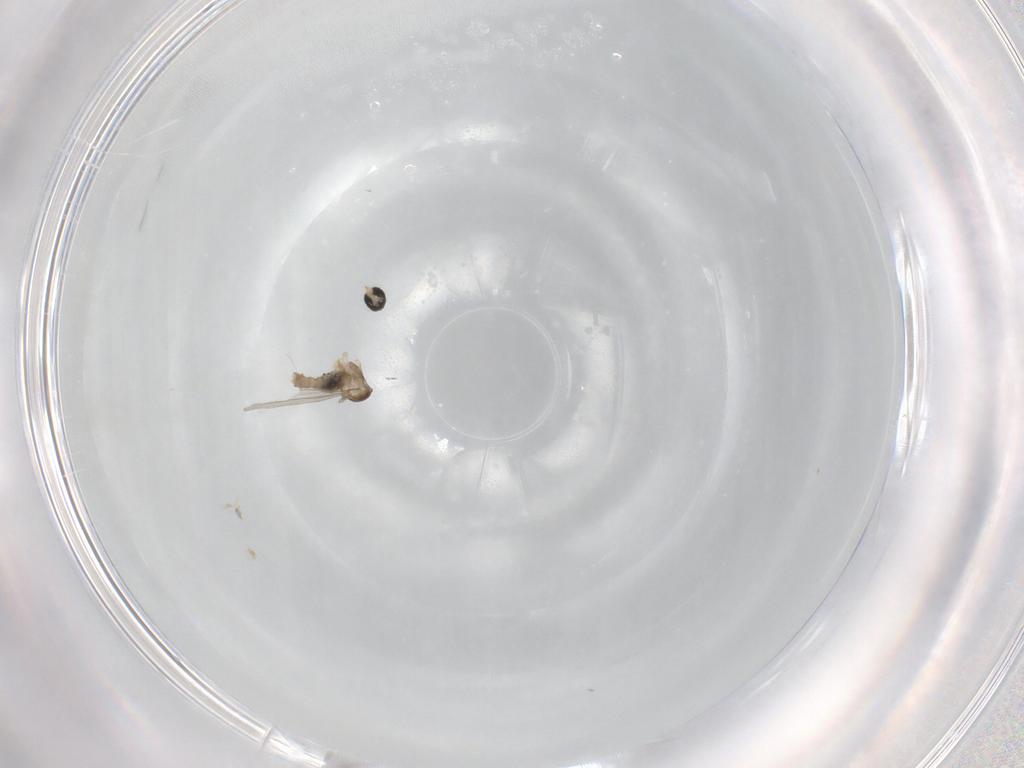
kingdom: Animalia
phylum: Arthropoda
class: Insecta
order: Diptera
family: Cecidomyiidae
